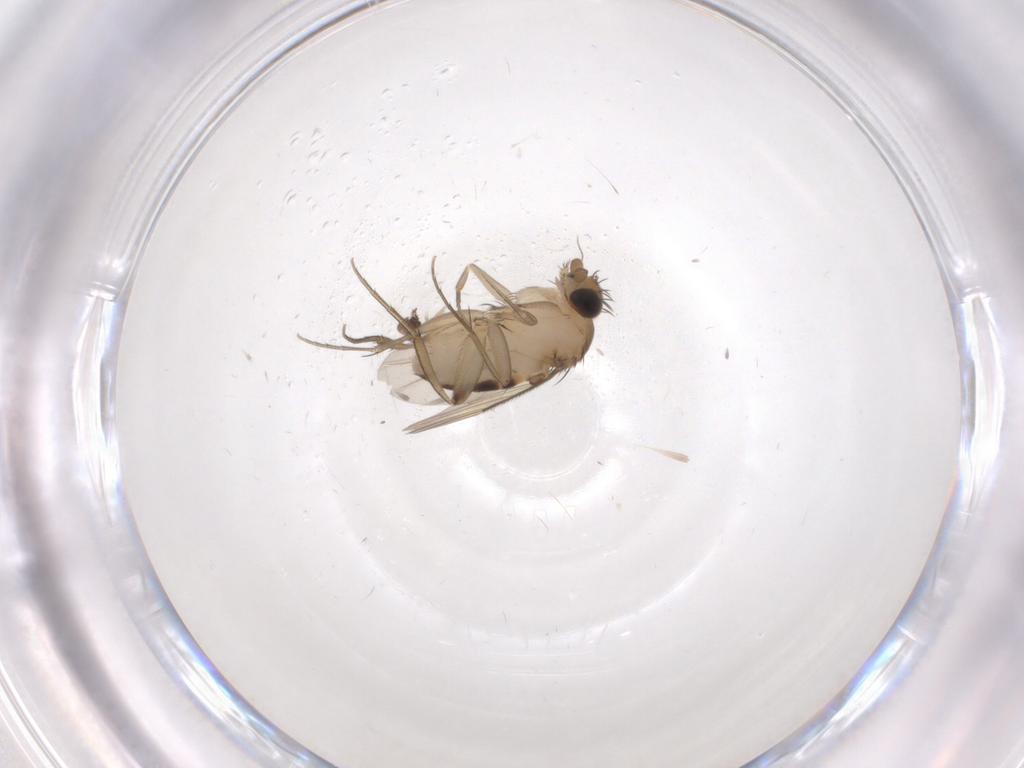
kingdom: Animalia
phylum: Arthropoda
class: Insecta
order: Diptera
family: Phoridae
